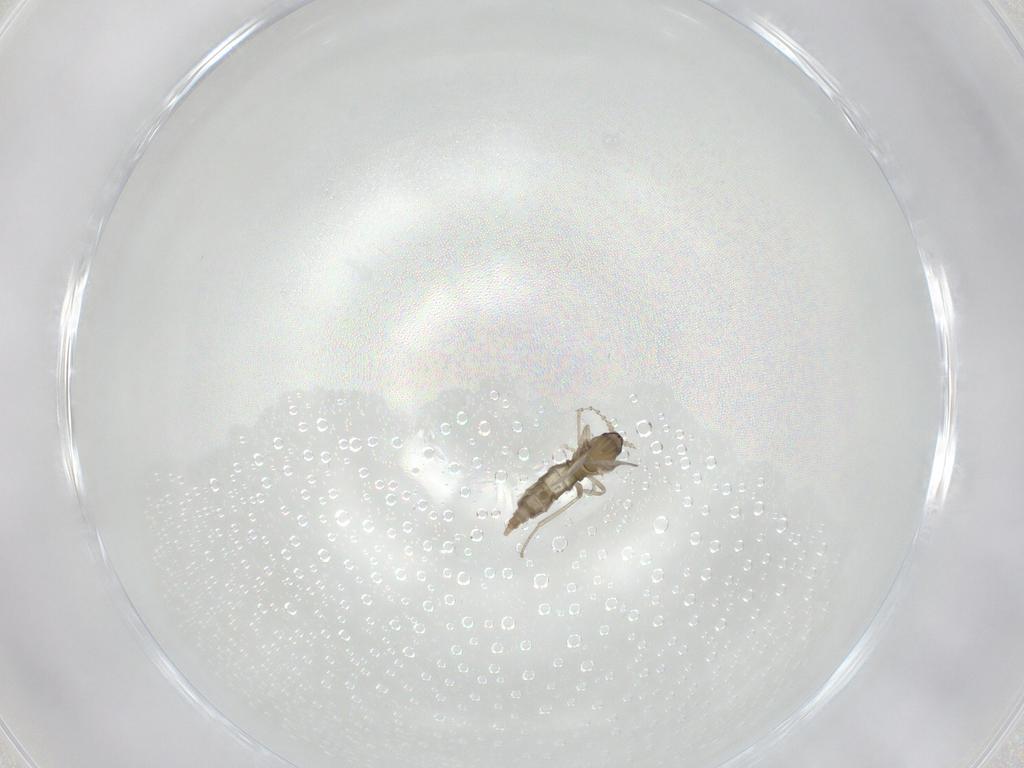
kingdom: Animalia
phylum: Arthropoda
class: Insecta
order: Diptera
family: Cecidomyiidae
